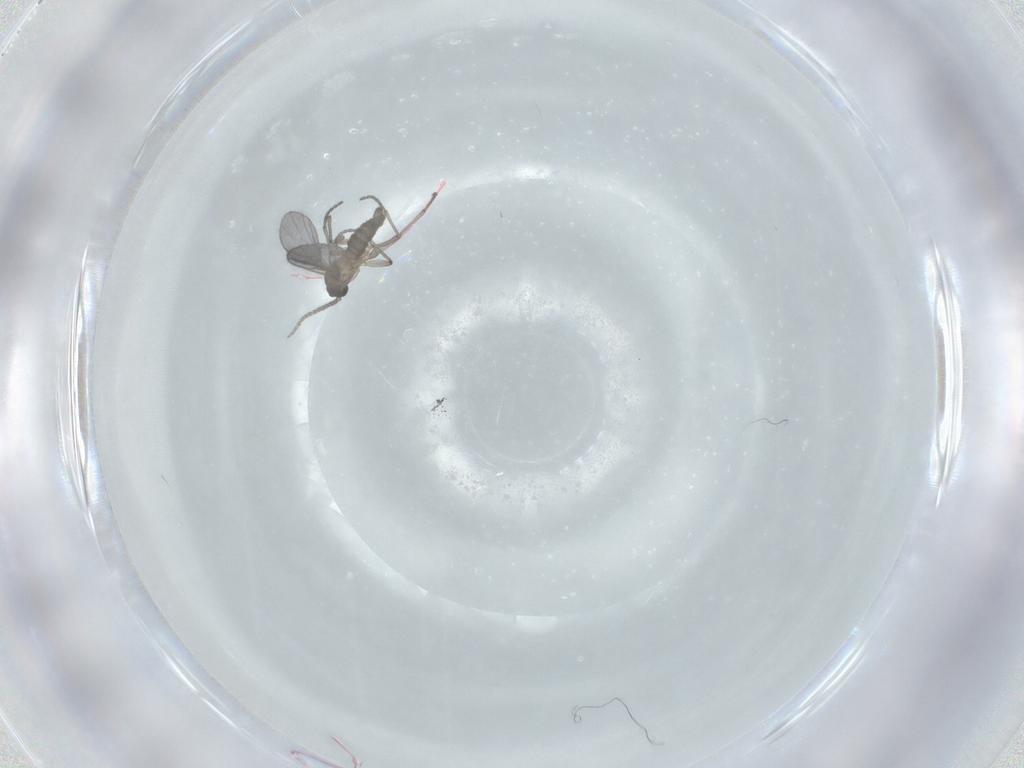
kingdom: Animalia
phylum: Arthropoda
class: Insecta
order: Diptera
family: Sciaridae
